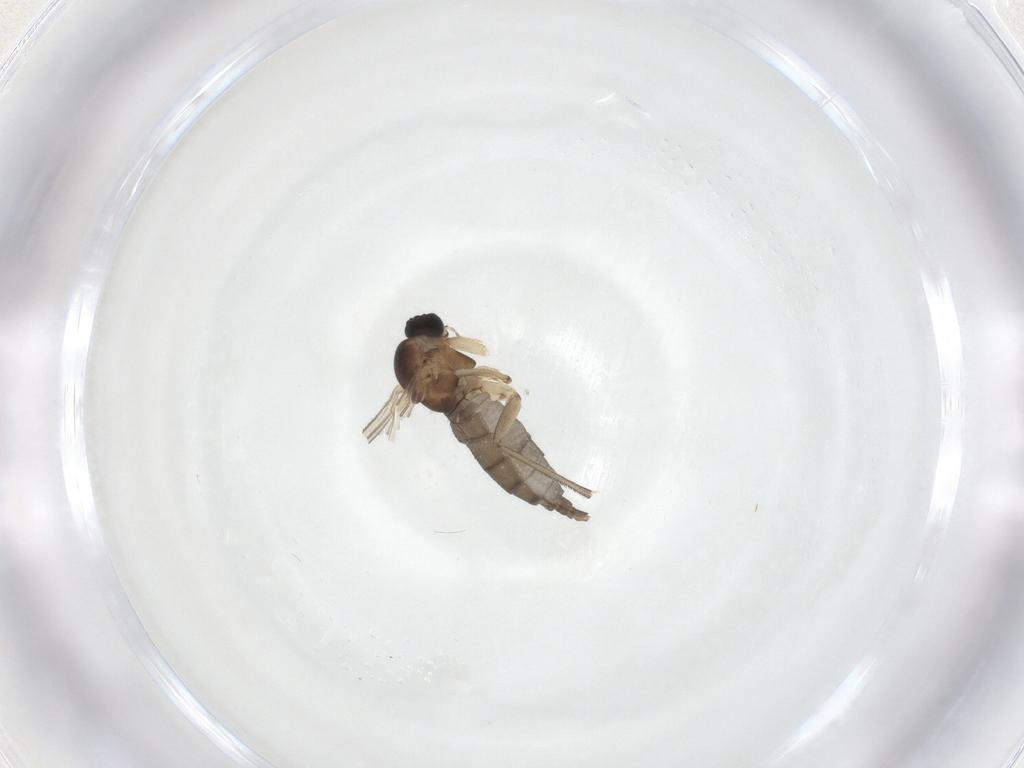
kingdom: Animalia
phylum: Arthropoda
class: Insecta
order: Diptera
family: Sciaridae
